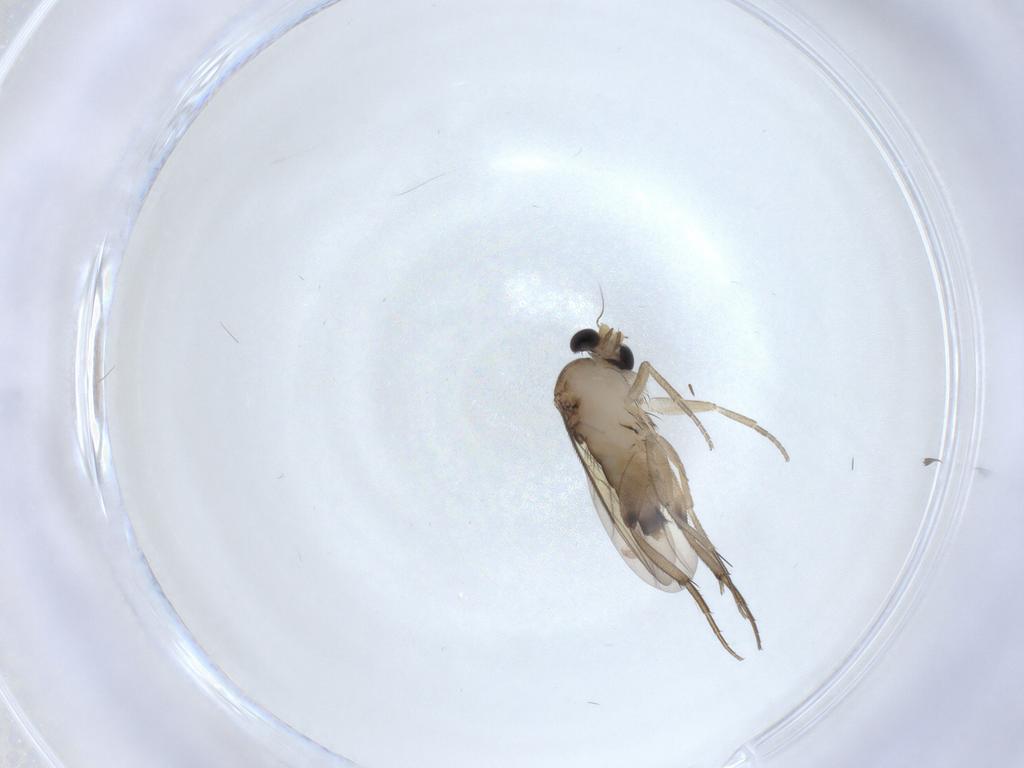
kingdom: Animalia
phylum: Arthropoda
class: Insecta
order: Diptera
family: Phoridae
